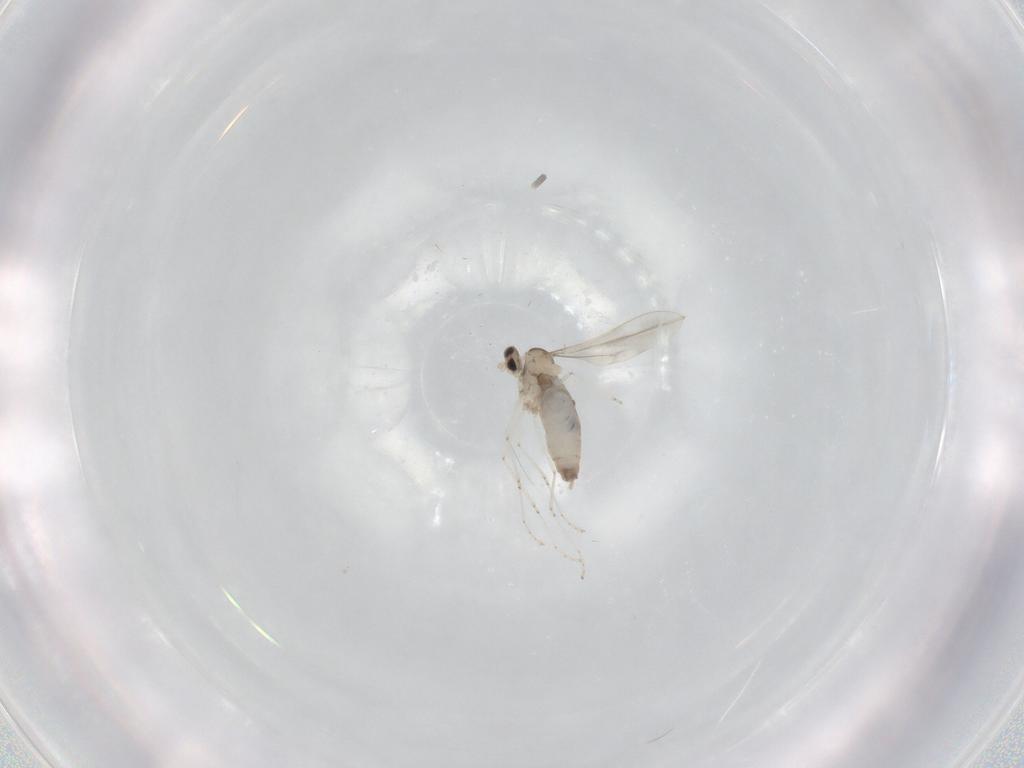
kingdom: Animalia
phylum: Arthropoda
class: Insecta
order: Diptera
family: Cecidomyiidae
